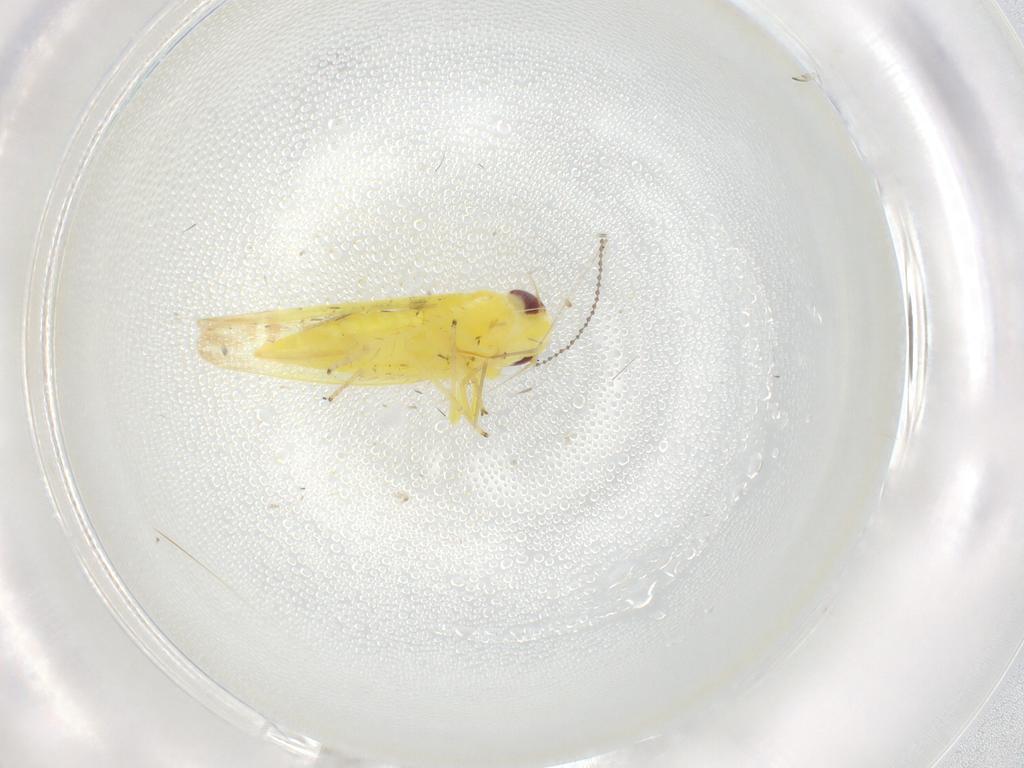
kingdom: Animalia
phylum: Arthropoda
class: Insecta
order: Hemiptera
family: Cicadellidae
